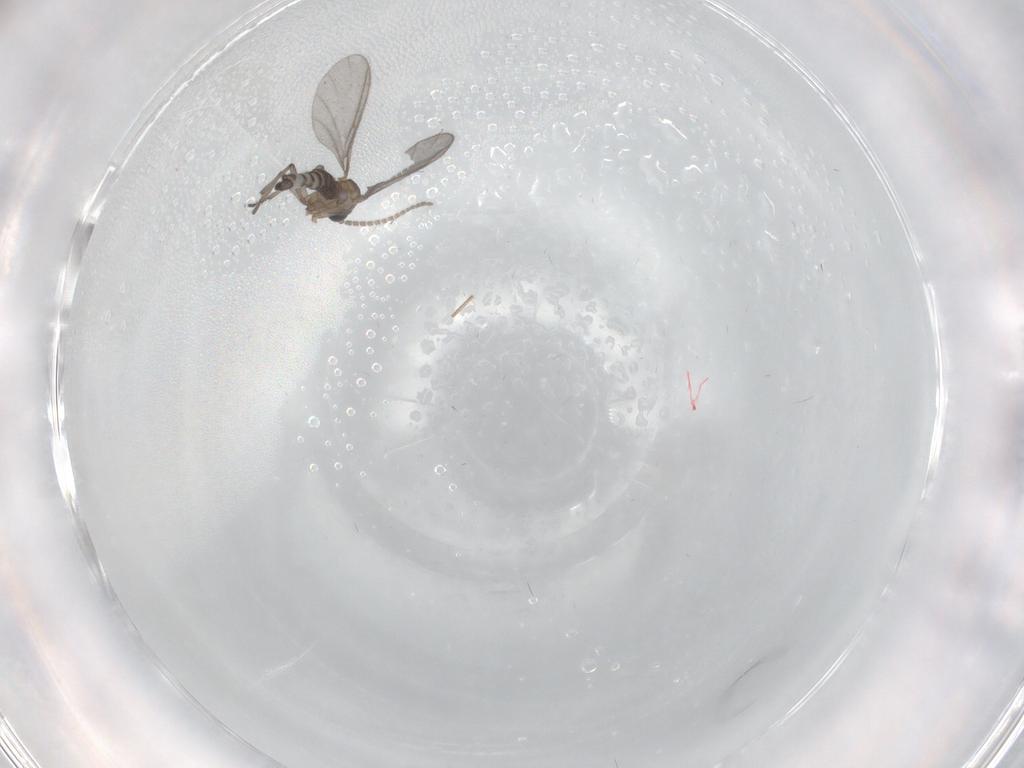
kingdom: Animalia
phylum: Arthropoda
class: Insecta
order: Diptera
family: Sciaridae
